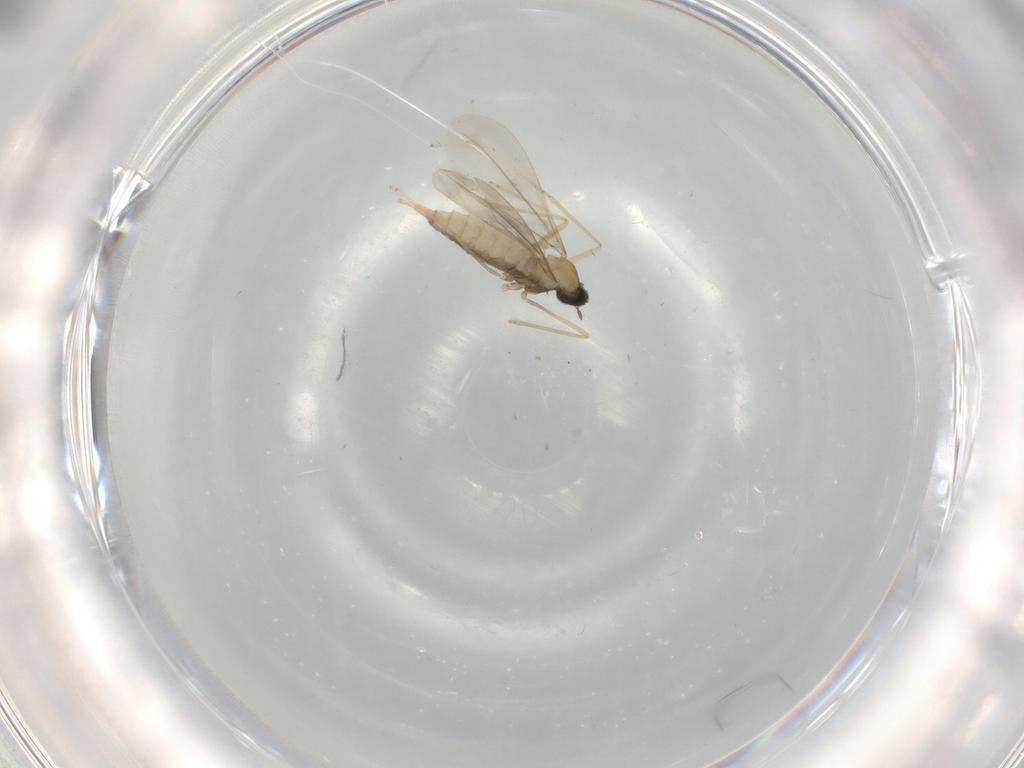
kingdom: Animalia
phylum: Arthropoda
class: Insecta
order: Diptera
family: Cecidomyiidae
